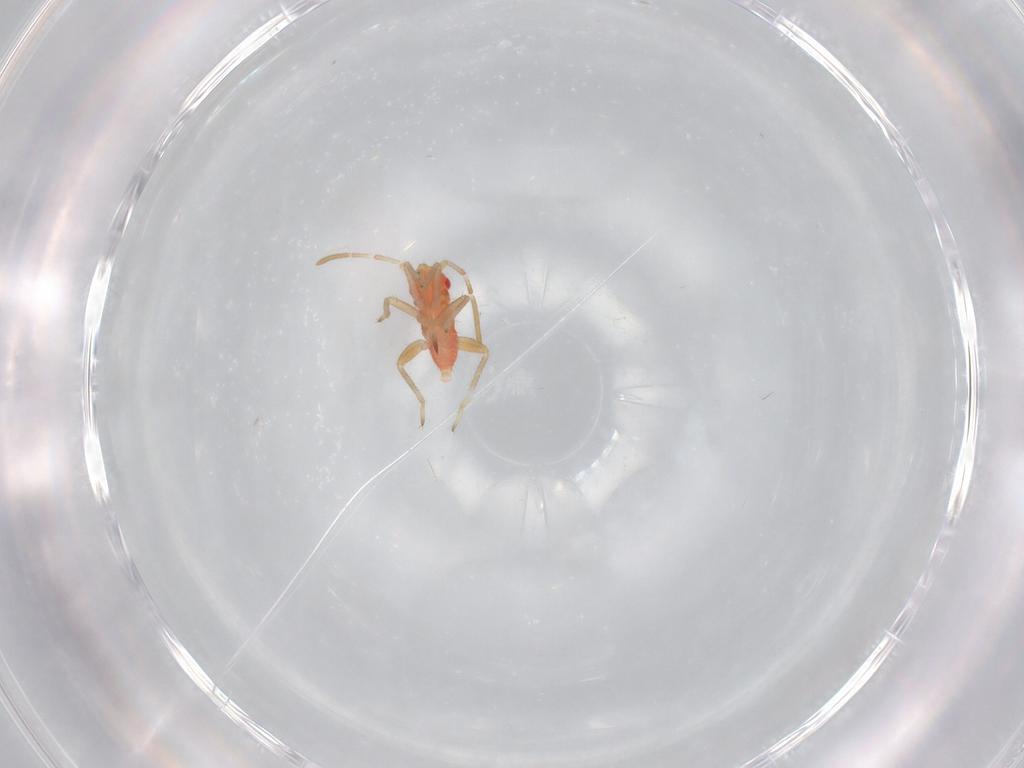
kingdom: Animalia
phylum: Arthropoda
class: Insecta
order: Hemiptera
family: Miridae
